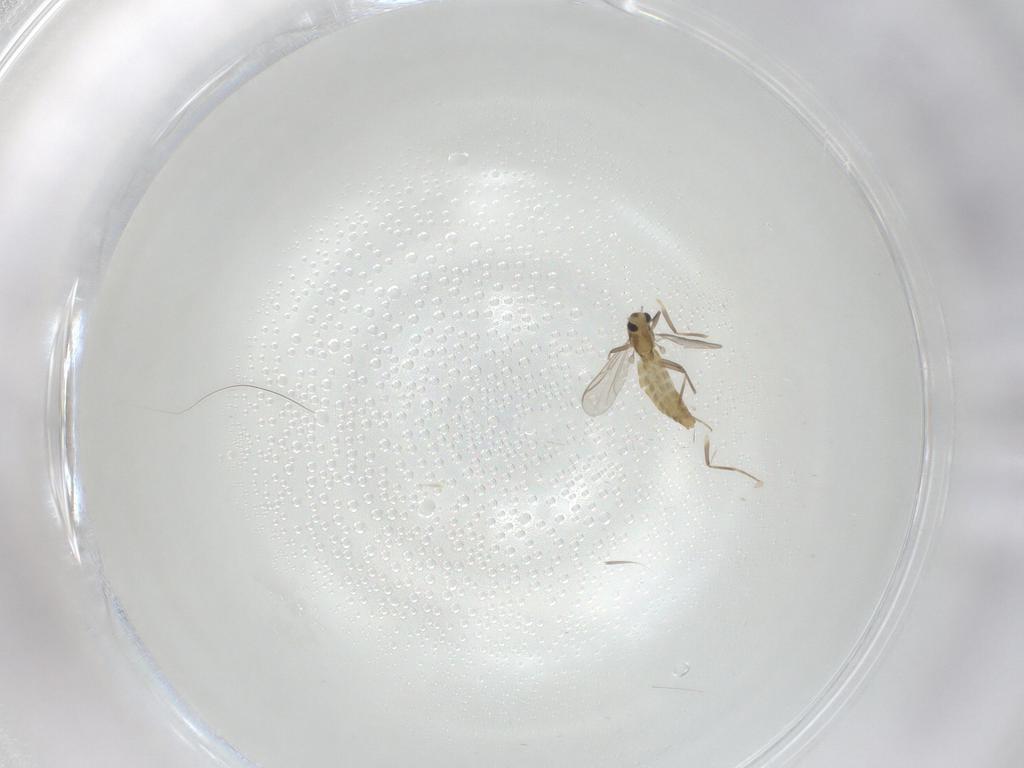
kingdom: Animalia
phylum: Arthropoda
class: Insecta
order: Diptera
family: Chironomidae
